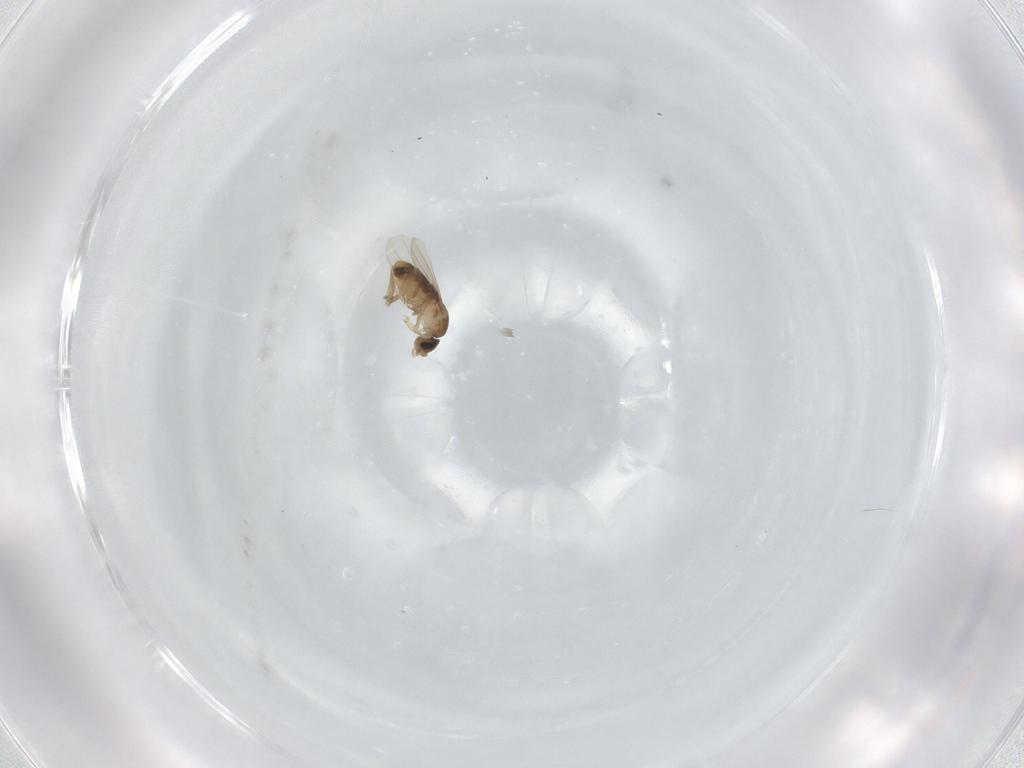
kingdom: Animalia
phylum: Arthropoda
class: Insecta
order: Diptera
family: Phoridae
